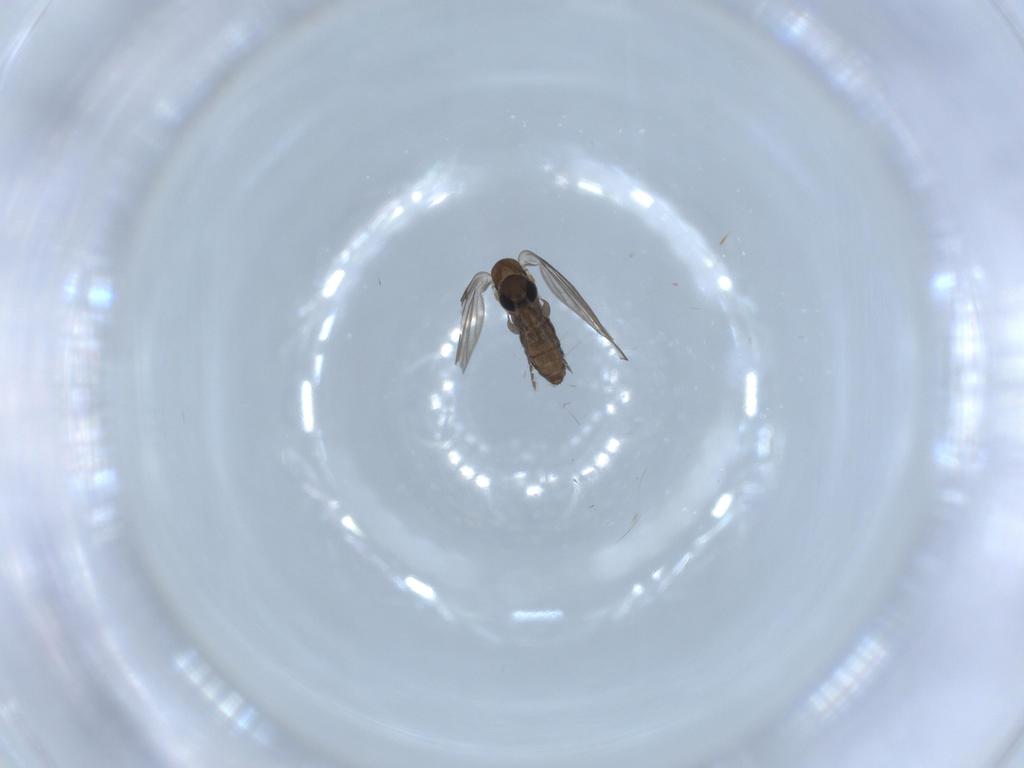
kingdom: Animalia
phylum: Arthropoda
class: Insecta
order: Diptera
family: Psychodidae
